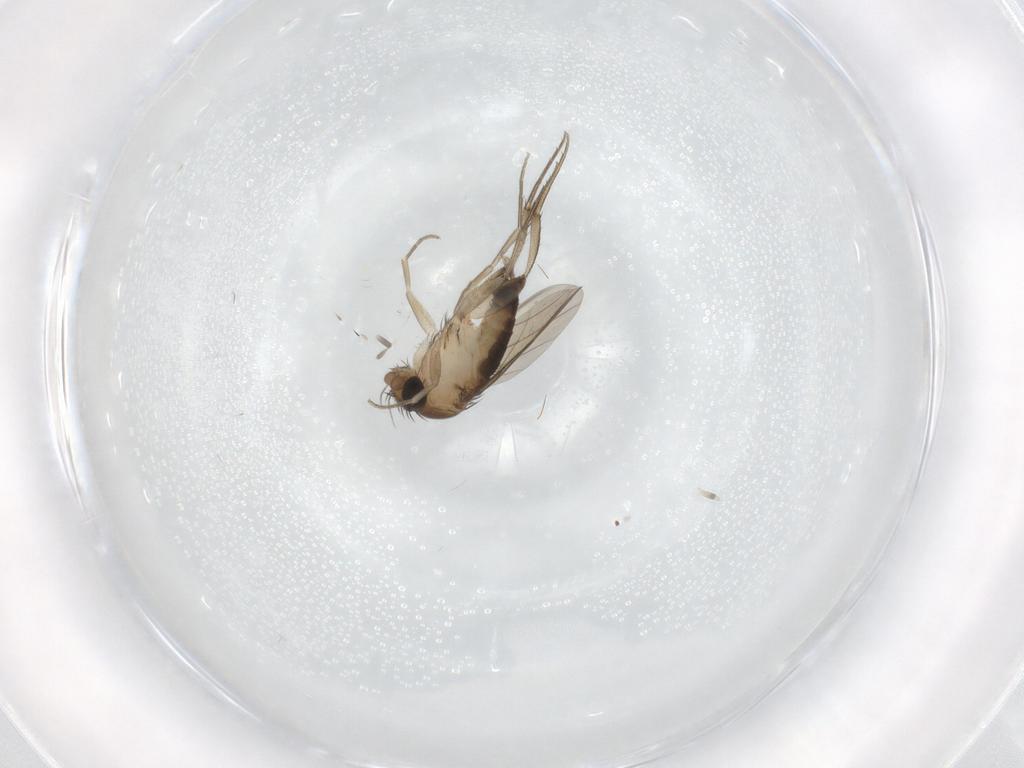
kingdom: Animalia
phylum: Arthropoda
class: Insecta
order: Diptera
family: Phoridae
